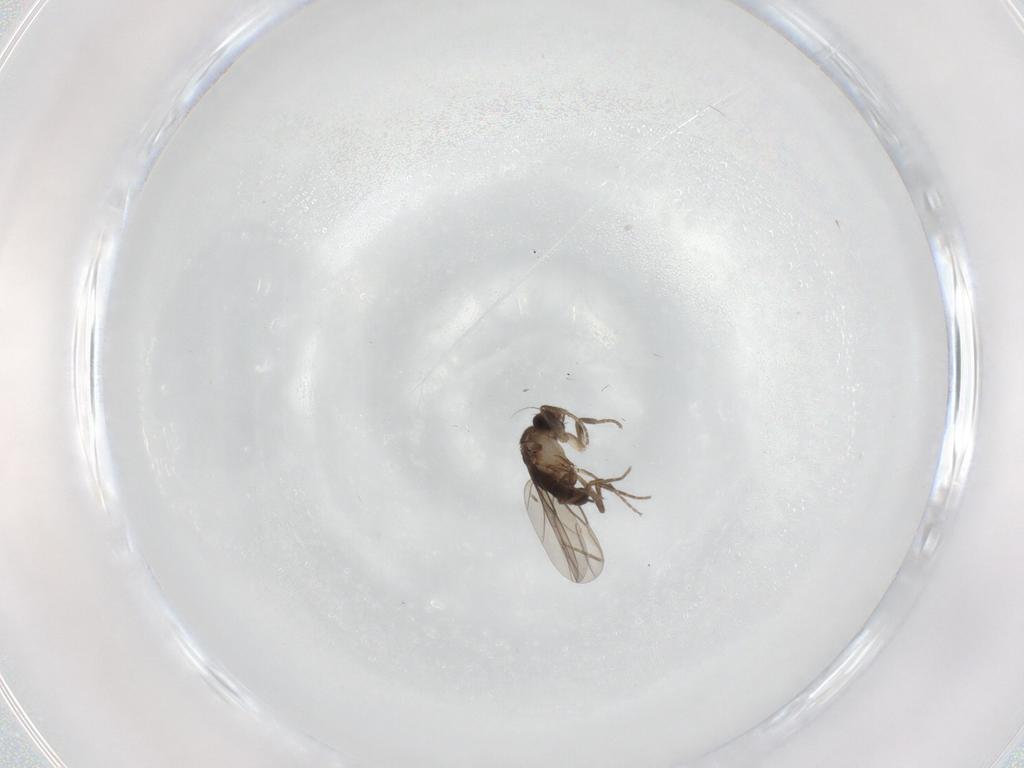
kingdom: Animalia
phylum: Arthropoda
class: Insecta
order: Diptera
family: Phoridae
